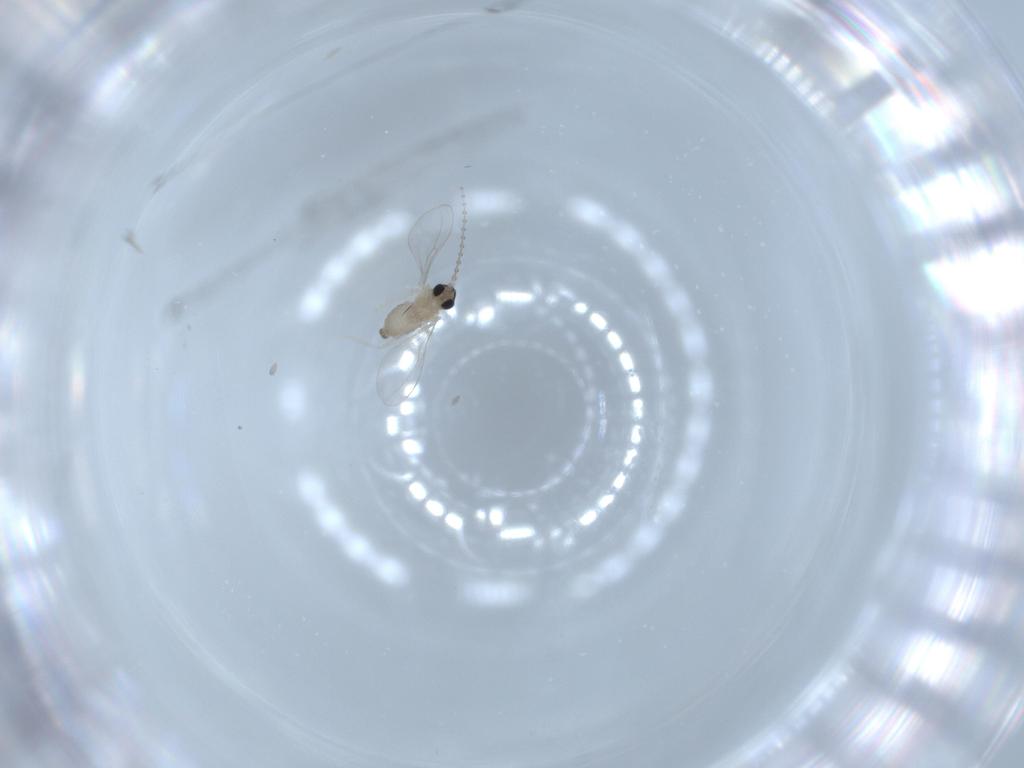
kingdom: Animalia
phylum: Arthropoda
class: Insecta
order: Diptera
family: Cecidomyiidae
